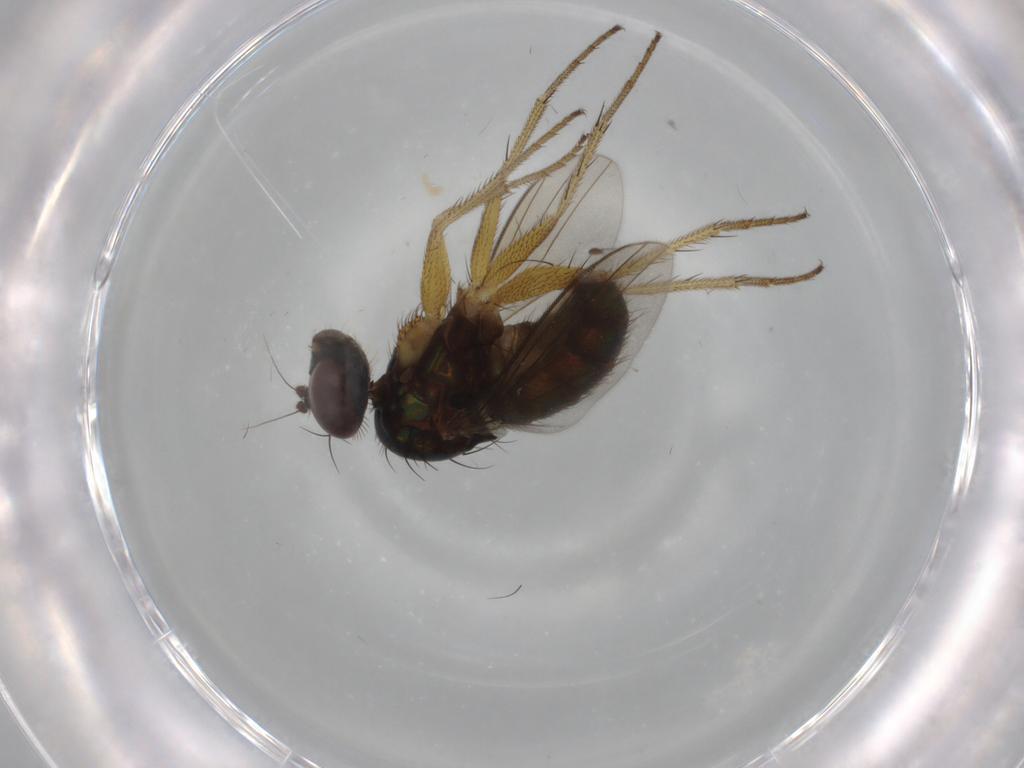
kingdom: Animalia
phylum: Arthropoda
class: Insecta
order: Diptera
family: Dolichopodidae
